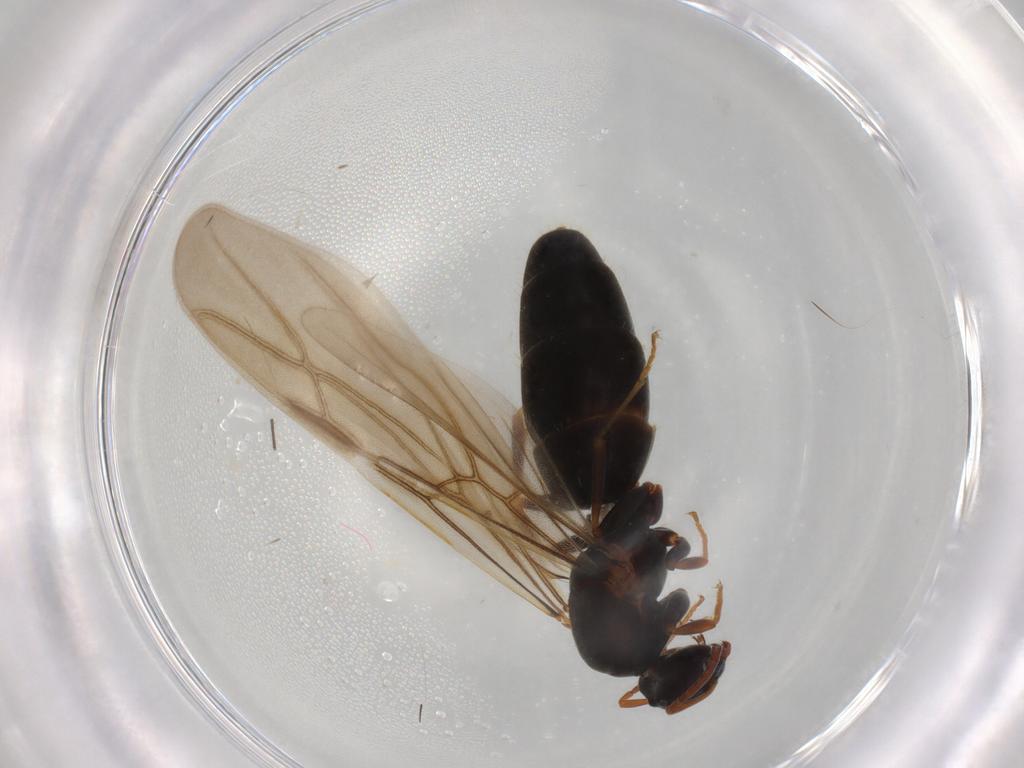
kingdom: Animalia
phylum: Arthropoda
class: Insecta
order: Hymenoptera
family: Formicidae
